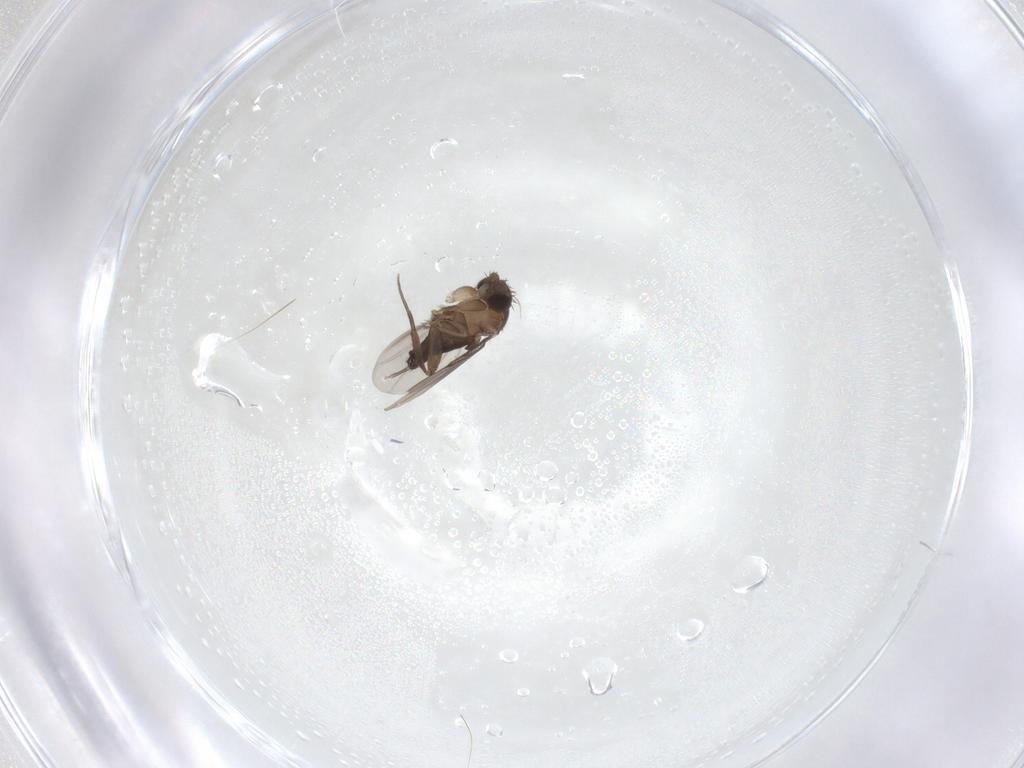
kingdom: Animalia
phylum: Arthropoda
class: Insecta
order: Diptera
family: Phoridae
